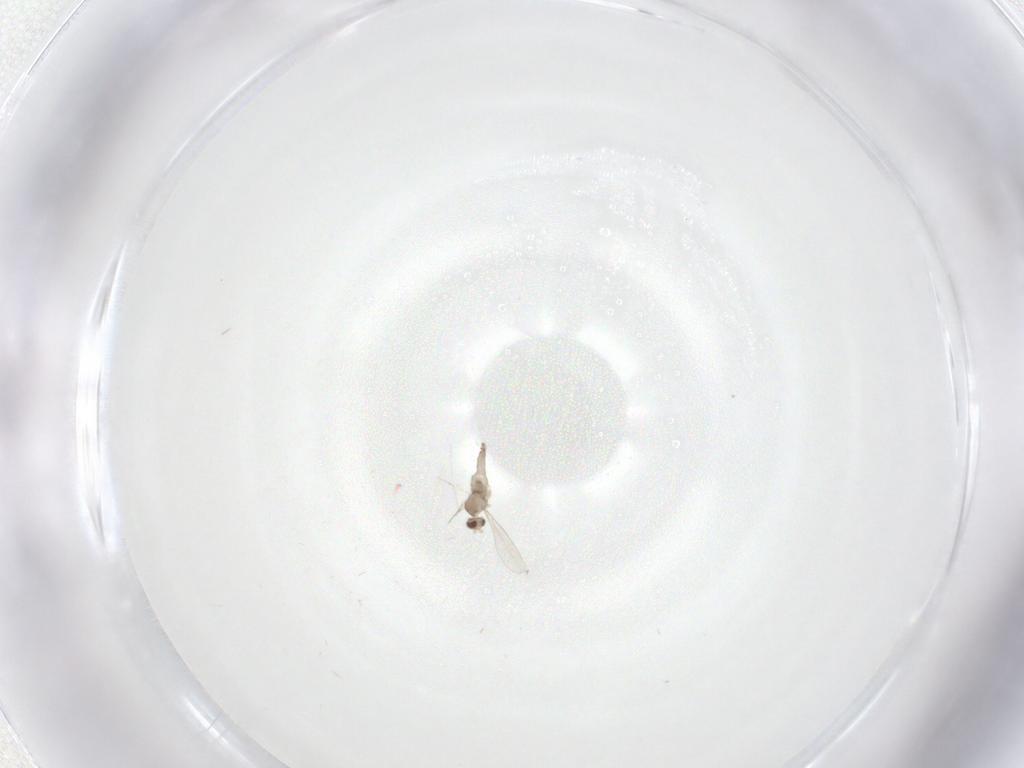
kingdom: Animalia
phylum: Arthropoda
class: Insecta
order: Diptera
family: Cecidomyiidae
